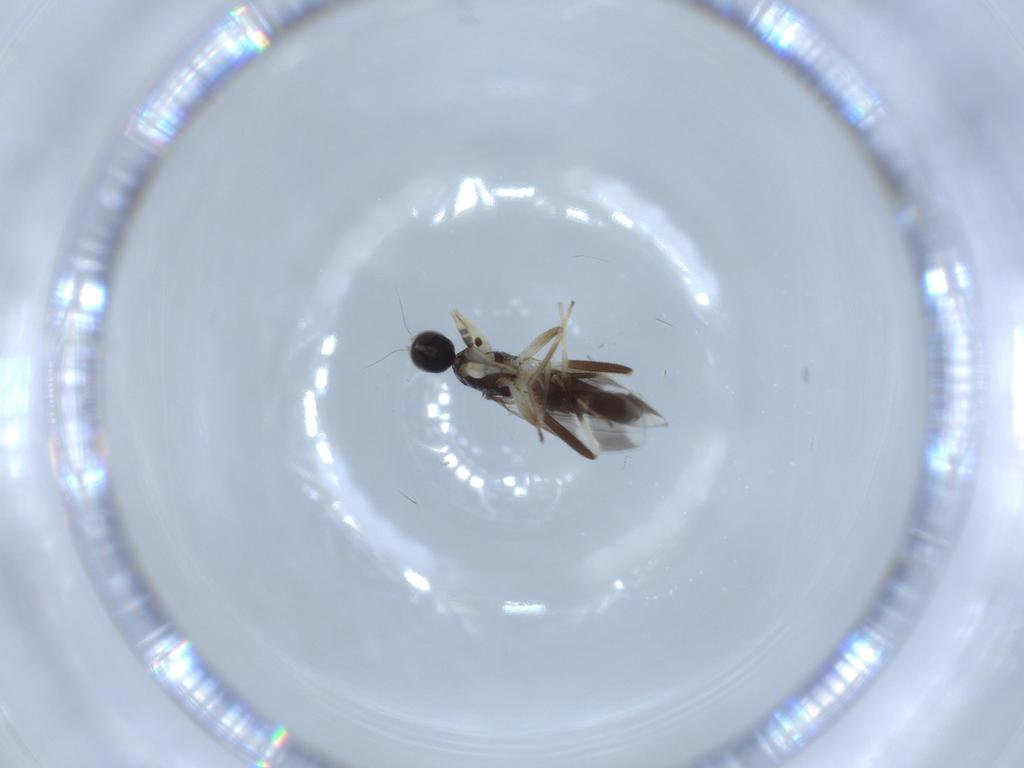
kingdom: Animalia
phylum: Arthropoda
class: Insecta
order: Diptera
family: Hybotidae
